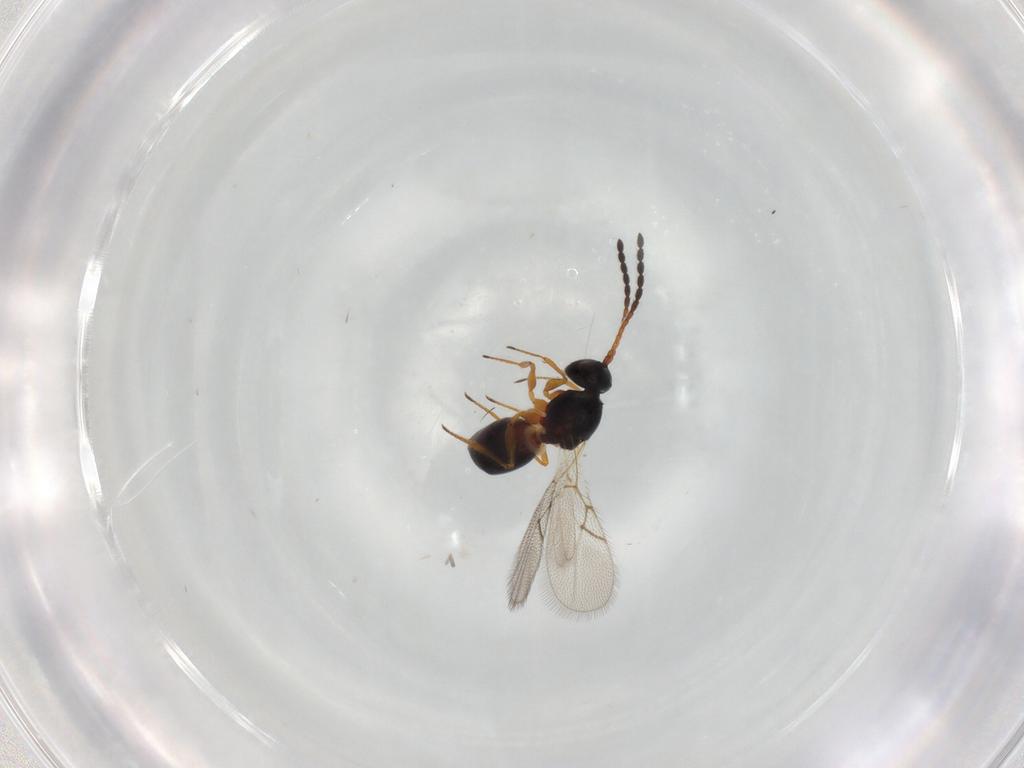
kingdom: Animalia
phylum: Arthropoda
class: Insecta
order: Hymenoptera
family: Figitidae
